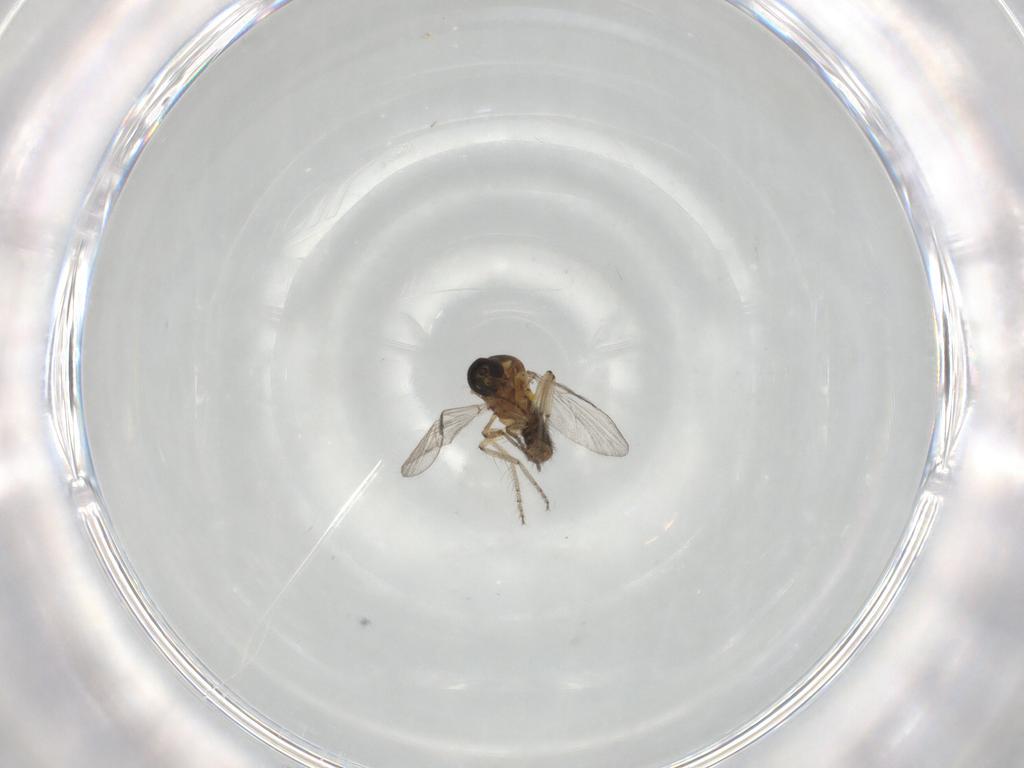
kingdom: Animalia
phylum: Arthropoda
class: Insecta
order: Diptera
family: Ceratopogonidae
